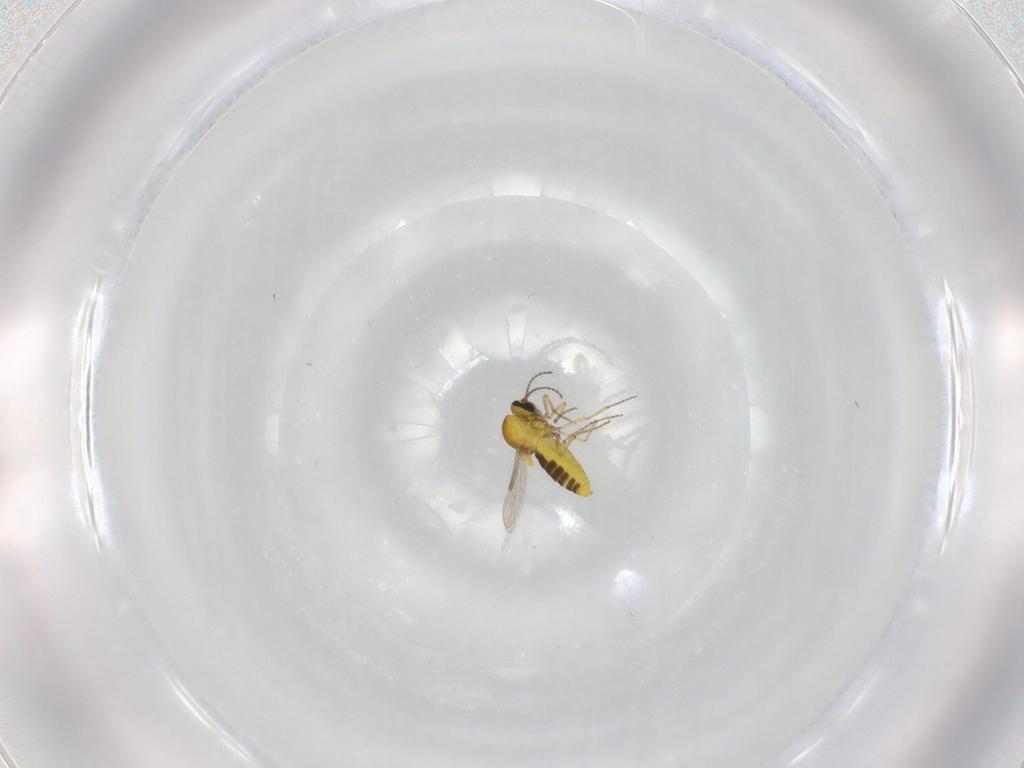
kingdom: Animalia
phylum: Arthropoda
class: Insecta
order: Diptera
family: Ceratopogonidae
